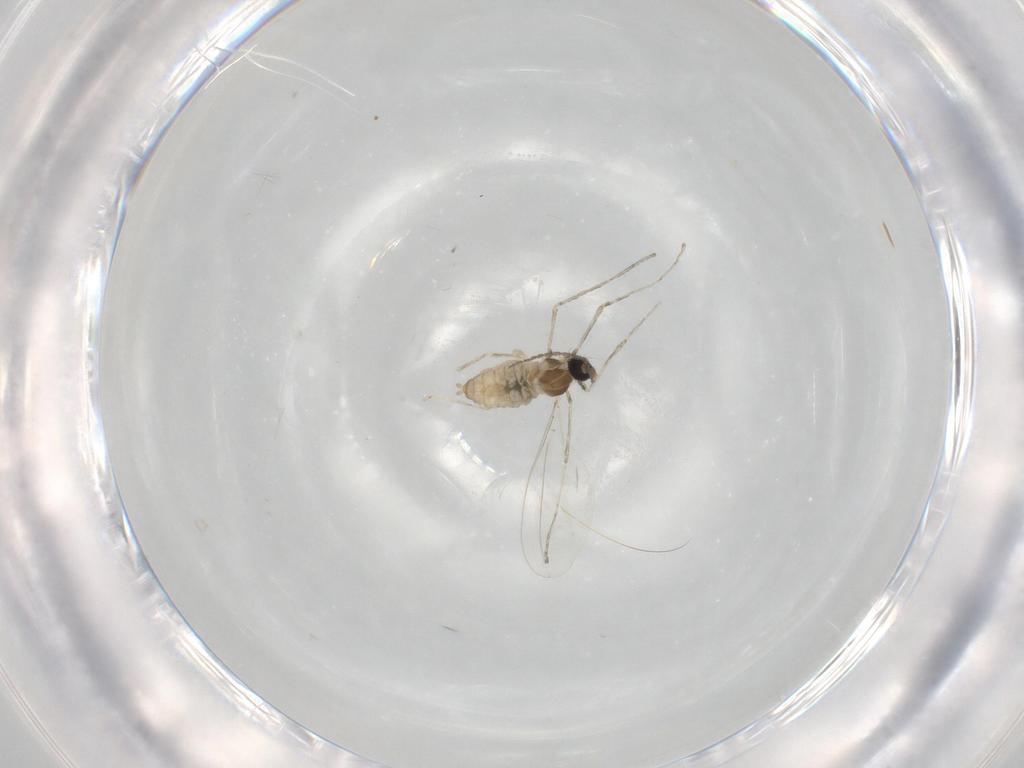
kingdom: Animalia
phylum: Arthropoda
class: Insecta
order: Diptera
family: Cecidomyiidae
